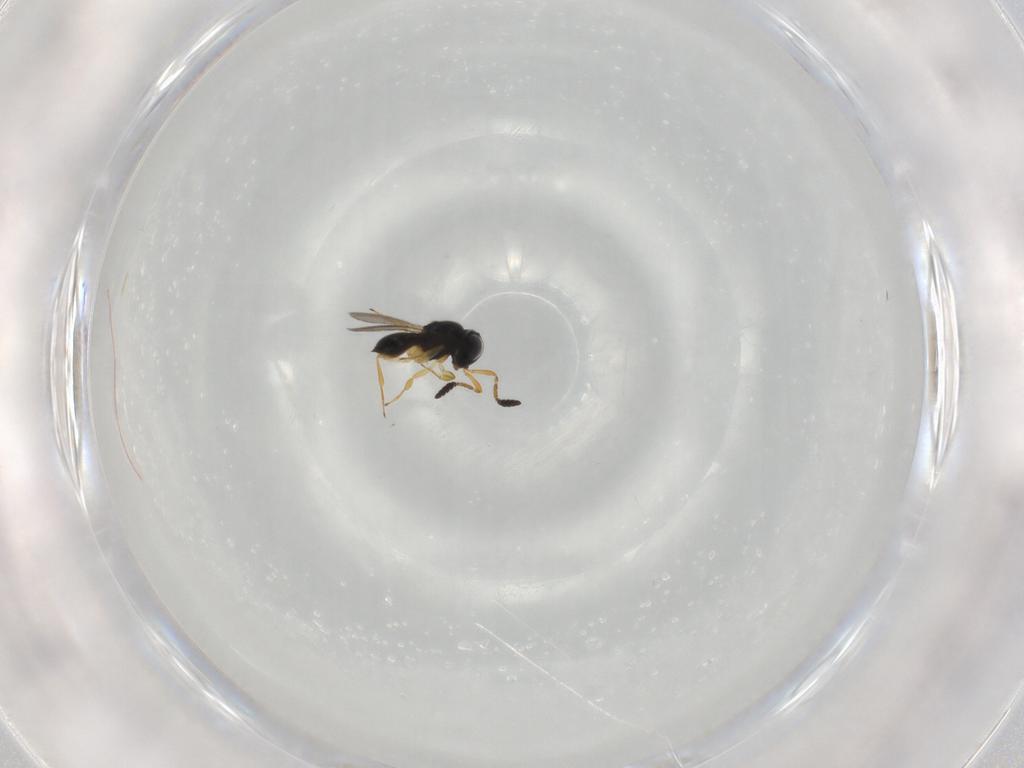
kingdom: Animalia
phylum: Arthropoda
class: Insecta
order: Hymenoptera
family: Scelionidae
